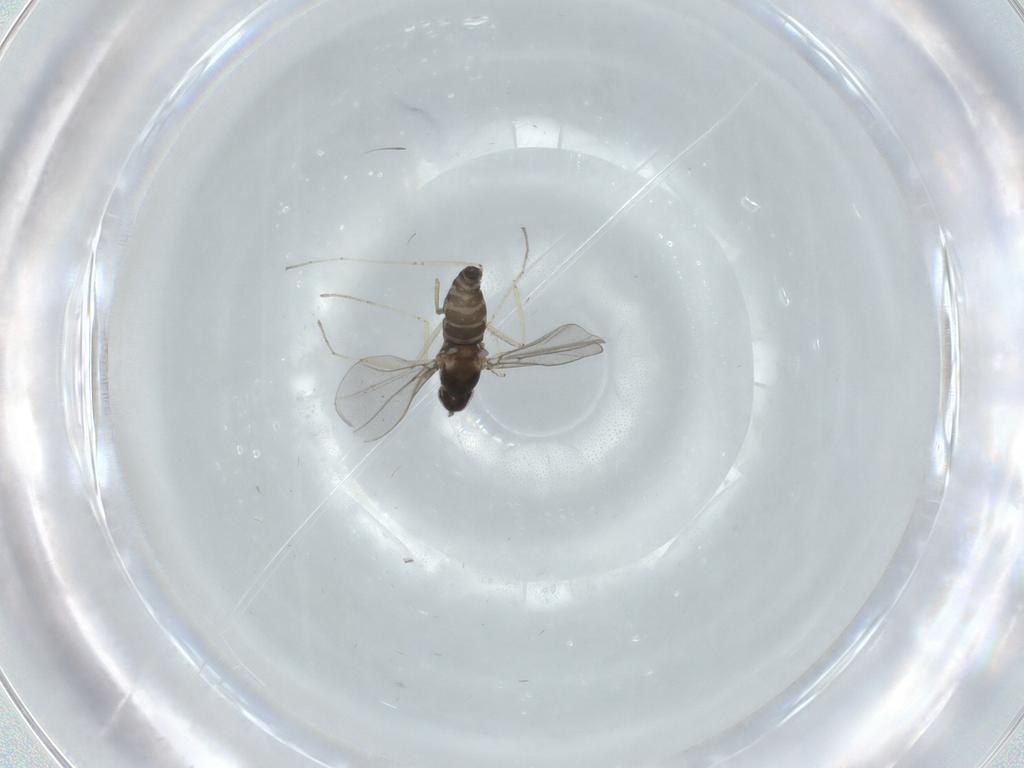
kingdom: Animalia
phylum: Arthropoda
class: Insecta
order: Diptera
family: Cecidomyiidae
